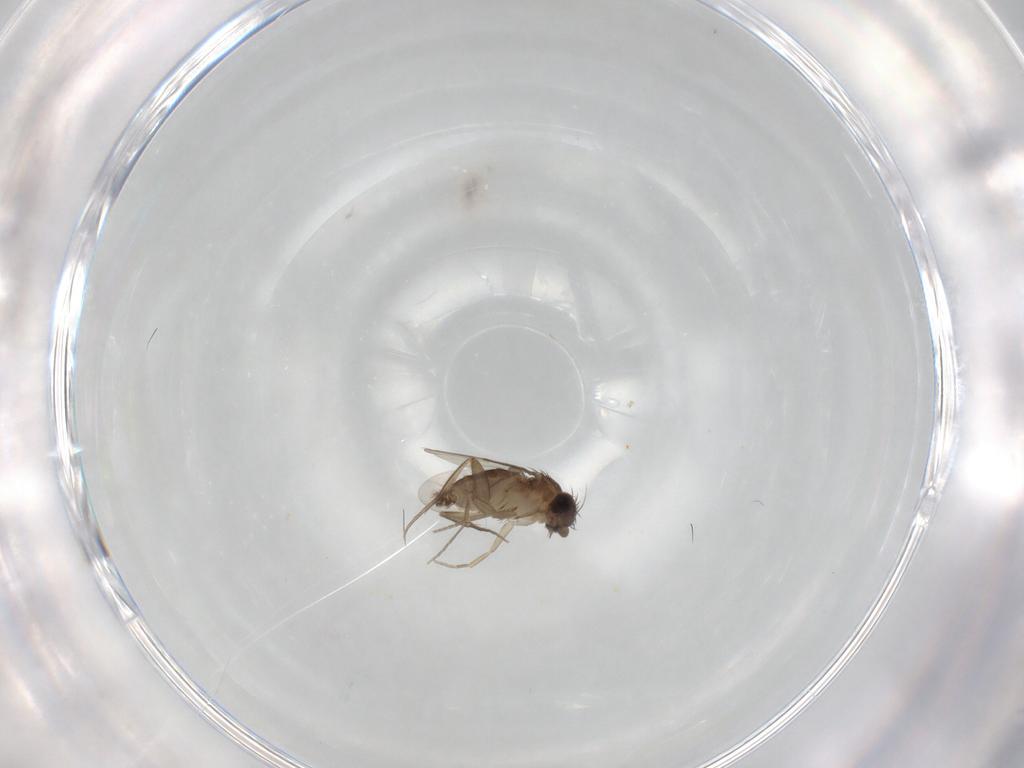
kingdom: Animalia
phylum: Arthropoda
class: Insecta
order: Diptera
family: Phoridae
